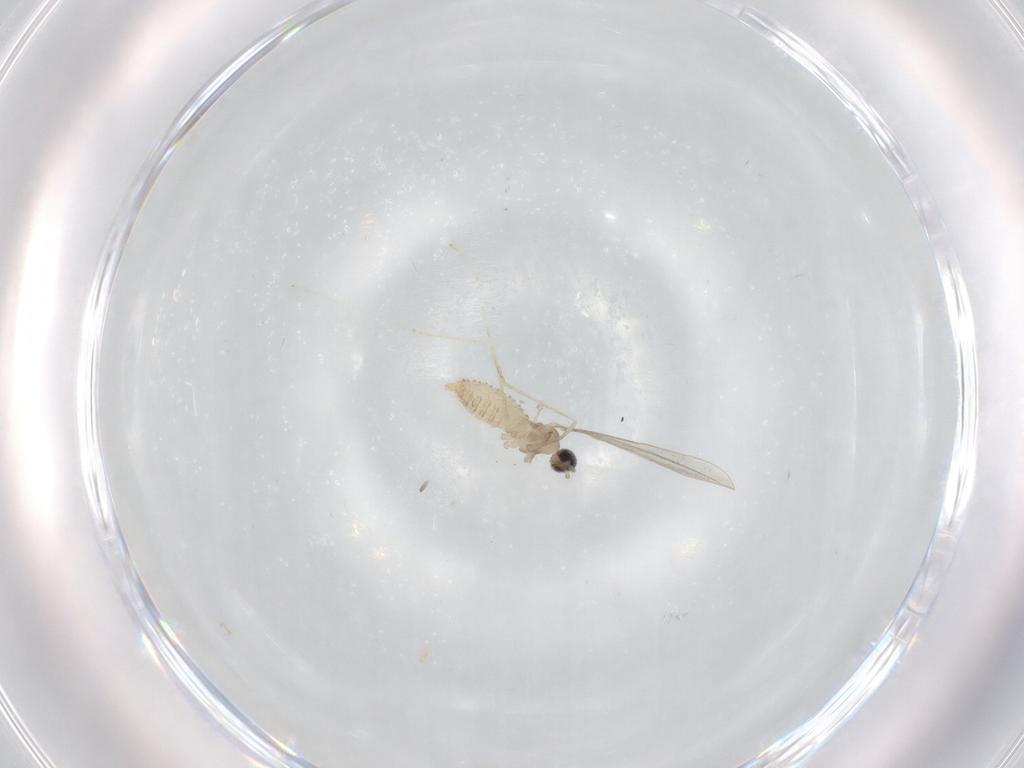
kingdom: Animalia
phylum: Arthropoda
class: Insecta
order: Diptera
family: Cecidomyiidae
